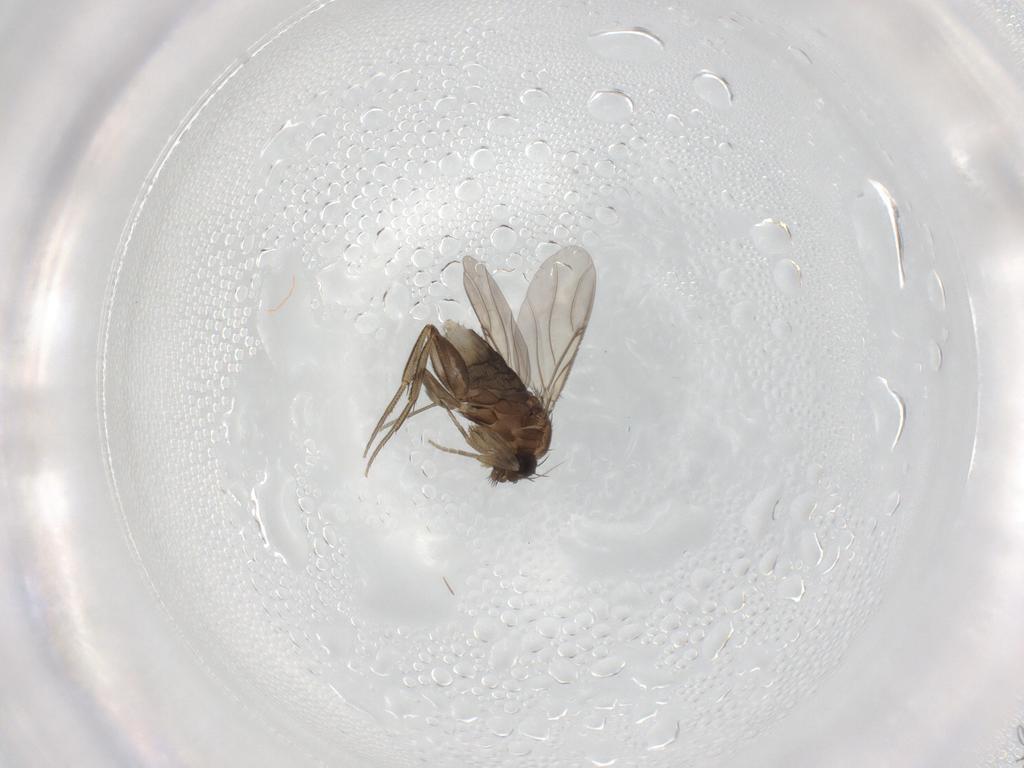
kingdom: Animalia
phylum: Arthropoda
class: Insecta
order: Diptera
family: Phoridae
